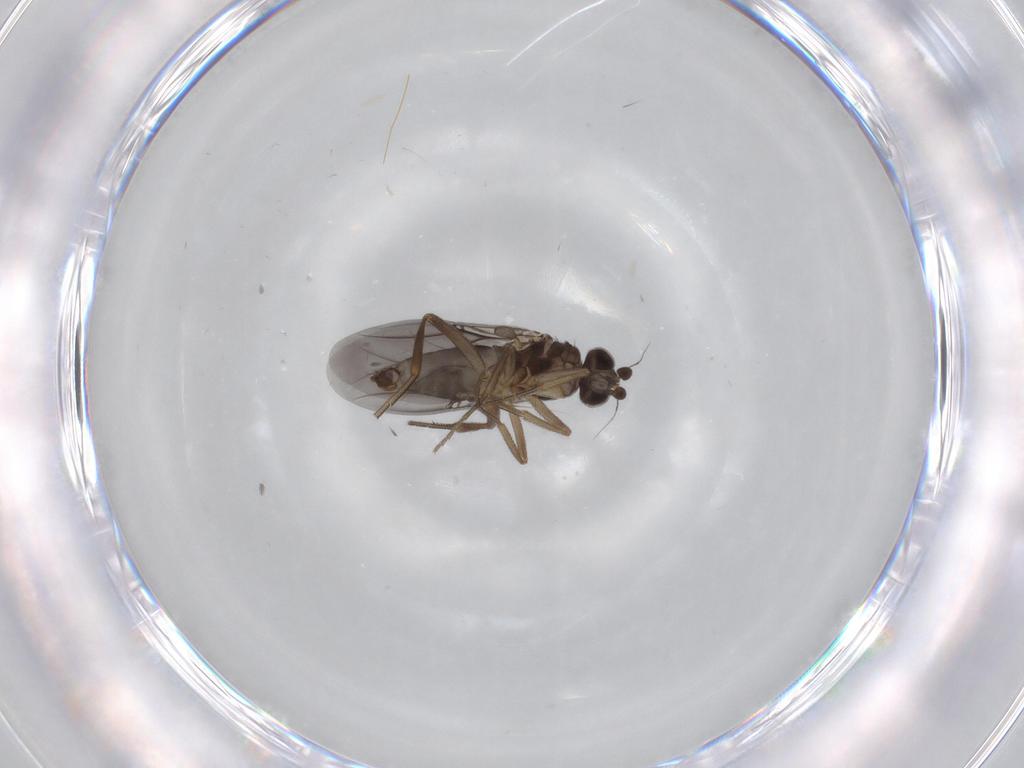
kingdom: Animalia
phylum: Arthropoda
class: Insecta
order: Diptera
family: Phoridae
